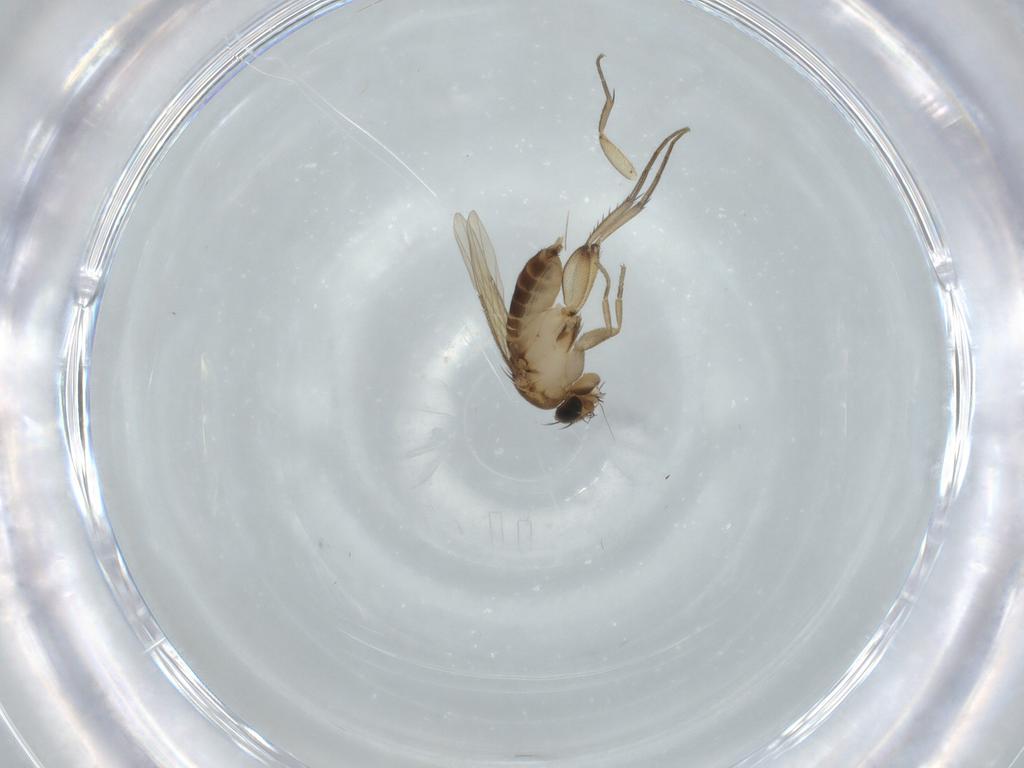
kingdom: Animalia
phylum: Arthropoda
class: Insecta
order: Diptera
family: Phoridae
